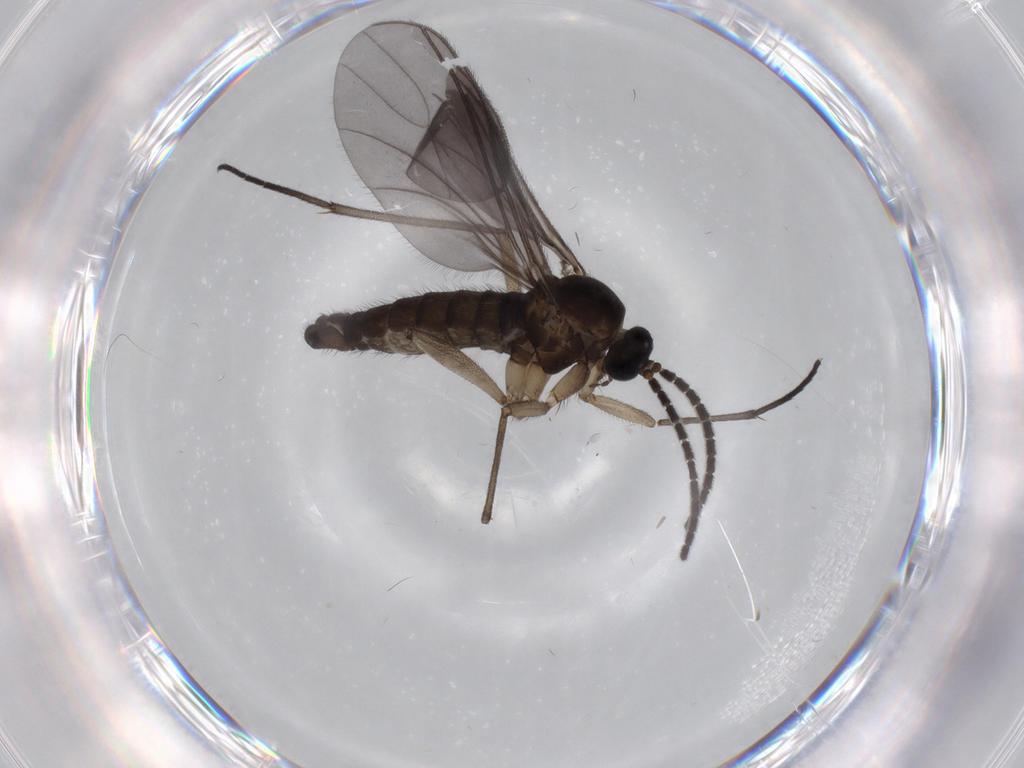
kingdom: Animalia
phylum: Arthropoda
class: Insecta
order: Diptera
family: Sciaridae
